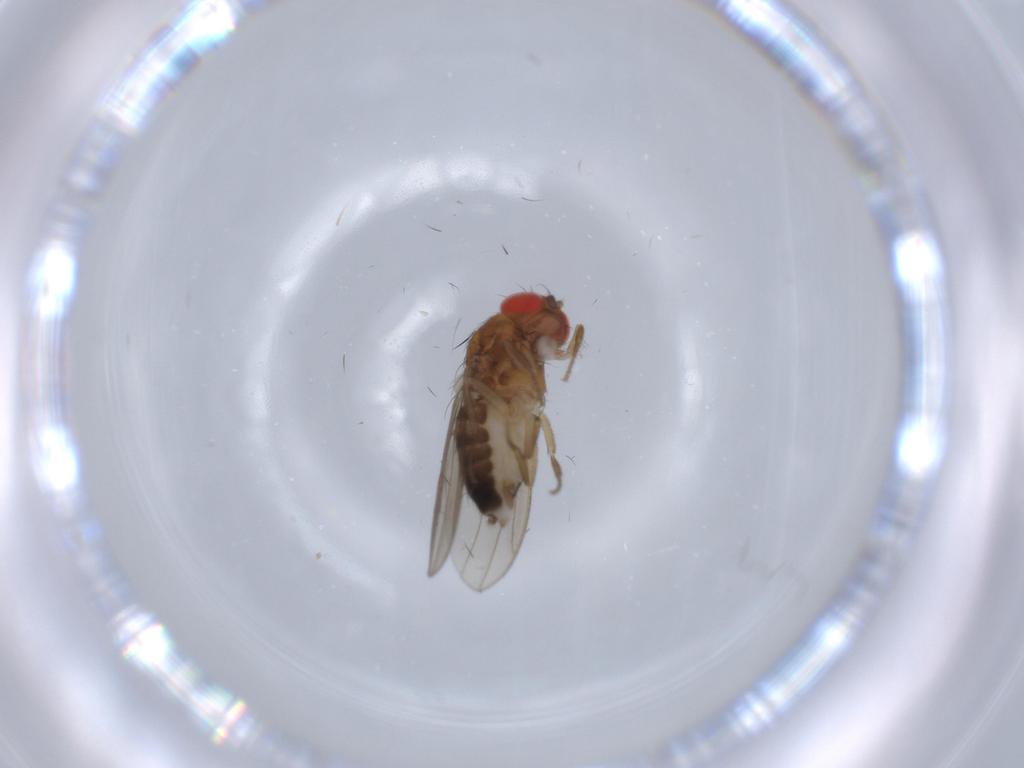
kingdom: Animalia
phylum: Arthropoda
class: Insecta
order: Diptera
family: Drosophilidae
